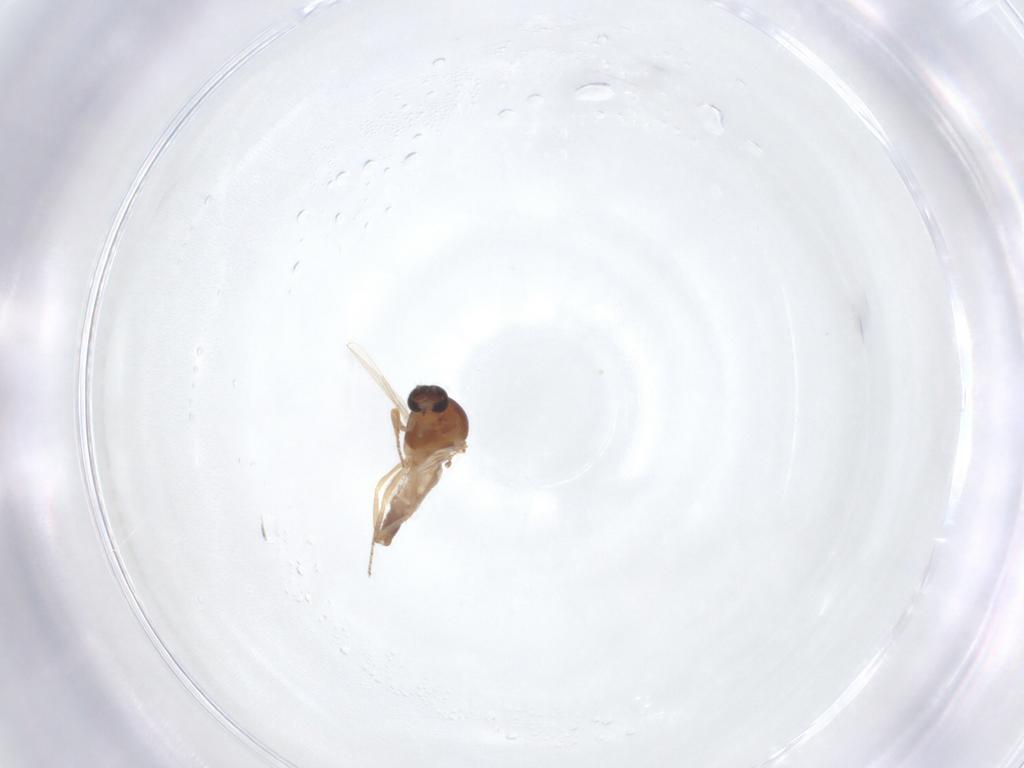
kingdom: Animalia
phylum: Arthropoda
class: Insecta
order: Diptera
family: Ceratopogonidae
